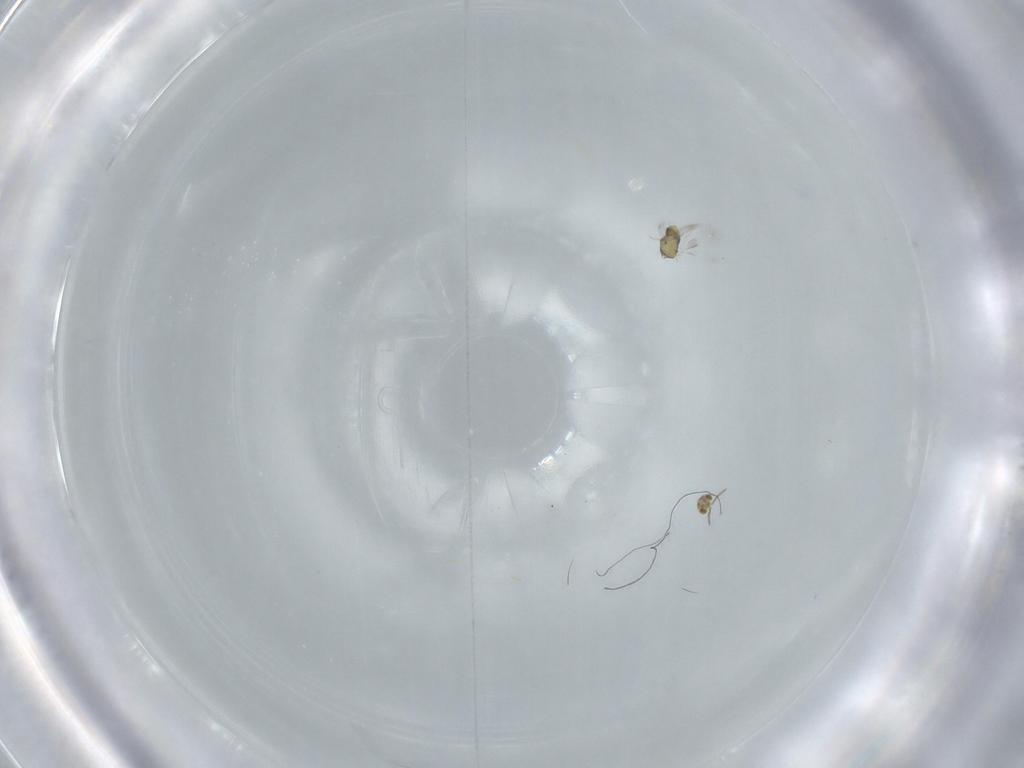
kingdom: Animalia
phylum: Arthropoda
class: Insecta
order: Hymenoptera
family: Aphelinidae
